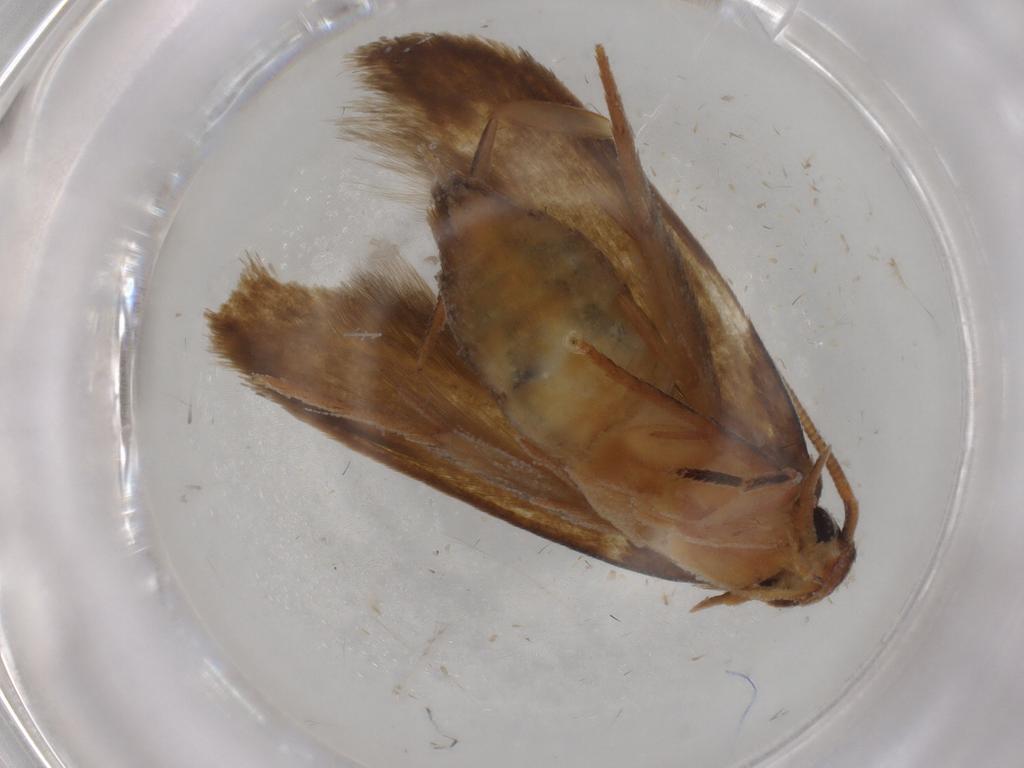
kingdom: Animalia
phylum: Arthropoda
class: Insecta
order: Lepidoptera
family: Tineidae
